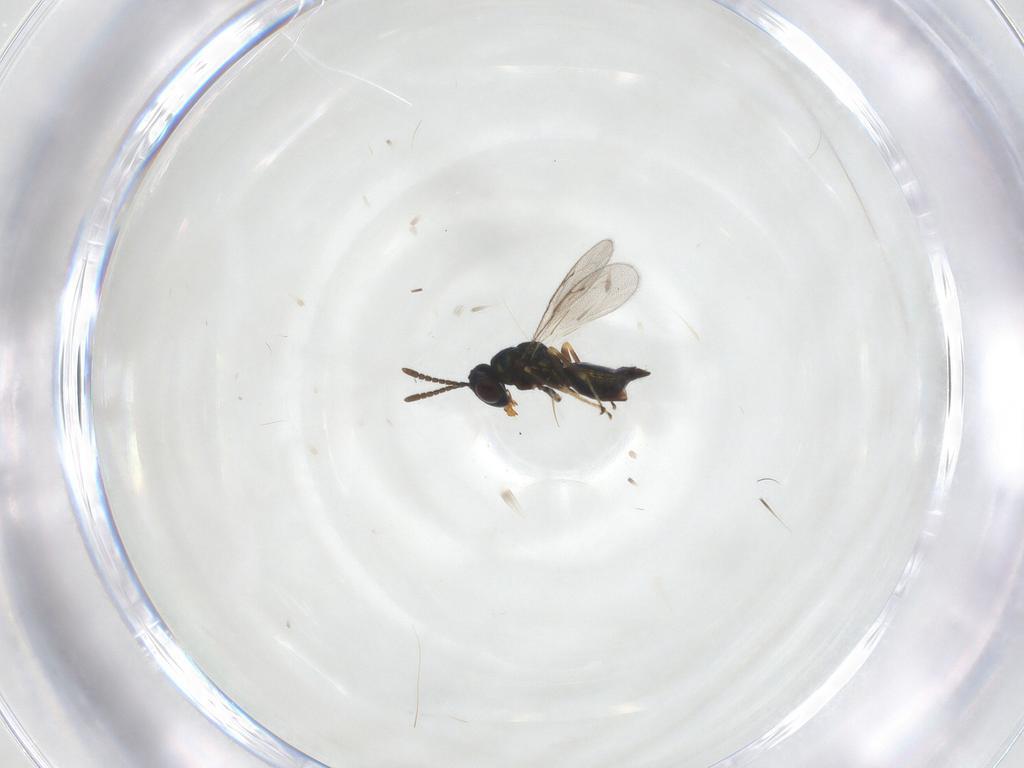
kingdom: Animalia
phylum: Arthropoda
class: Insecta
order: Hymenoptera
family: Pteromalidae
